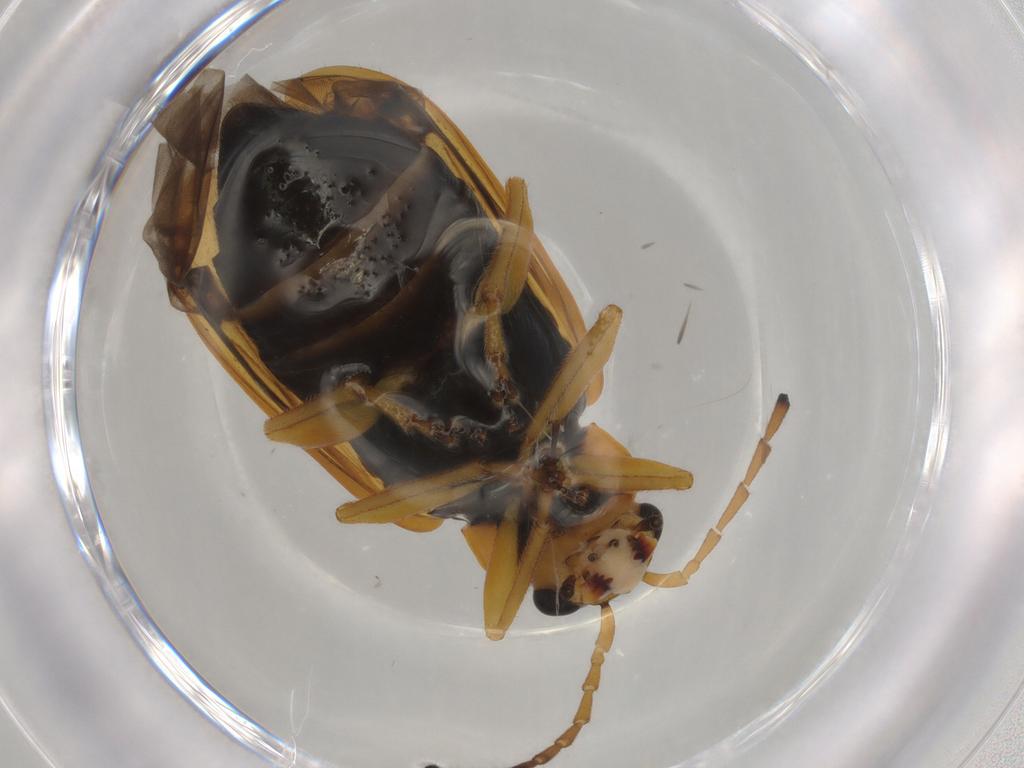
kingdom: Animalia
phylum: Arthropoda
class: Insecta
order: Coleoptera
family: Chrysomelidae
